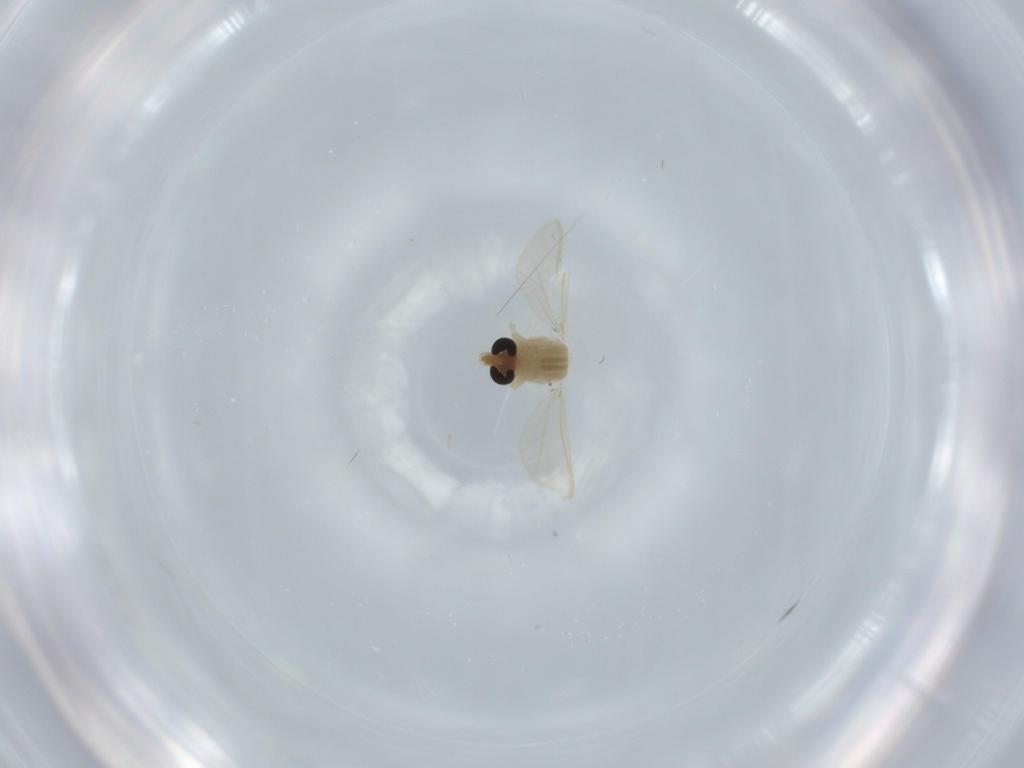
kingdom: Animalia
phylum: Arthropoda
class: Insecta
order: Diptera
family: Chironomidae
